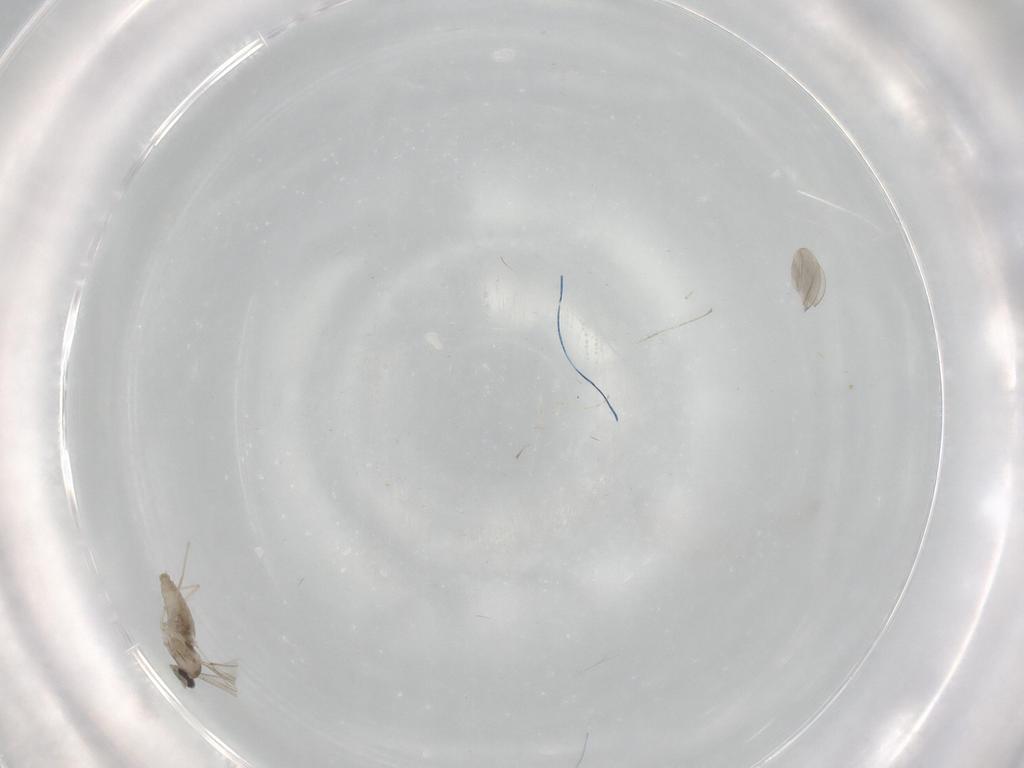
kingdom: Animalia
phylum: Arthropoda
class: Insecta
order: Diptera
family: Cecidomyiidae
